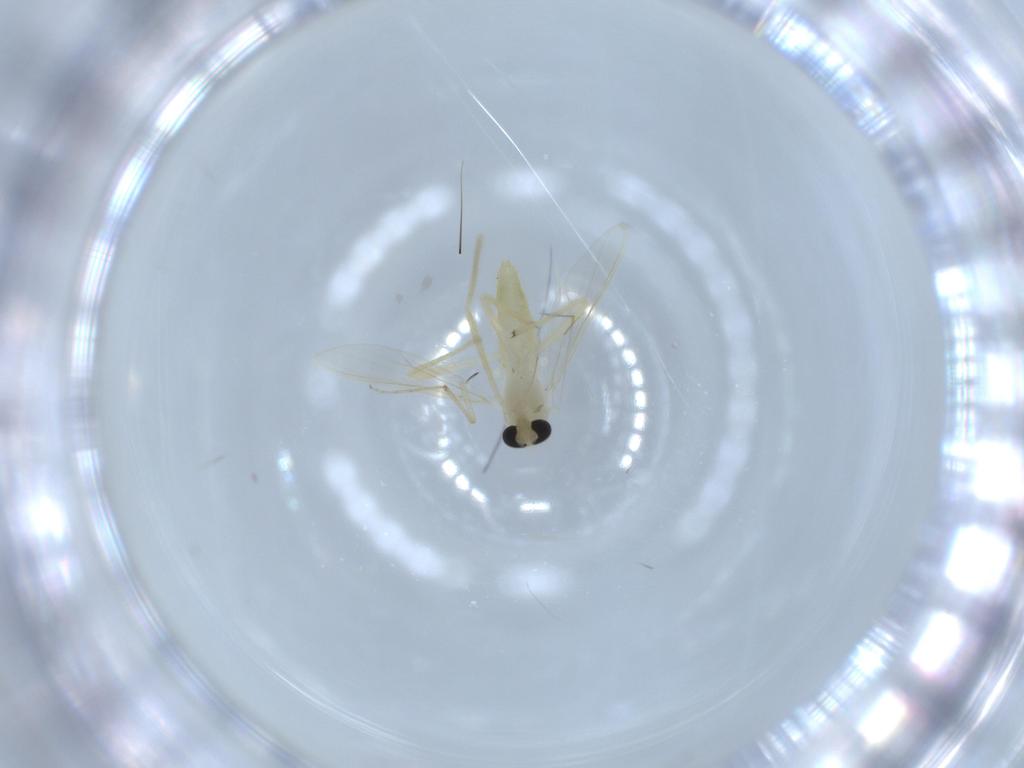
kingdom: Animalia
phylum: Arthropoda
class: Insecta
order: Diptera
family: Chironomidae
